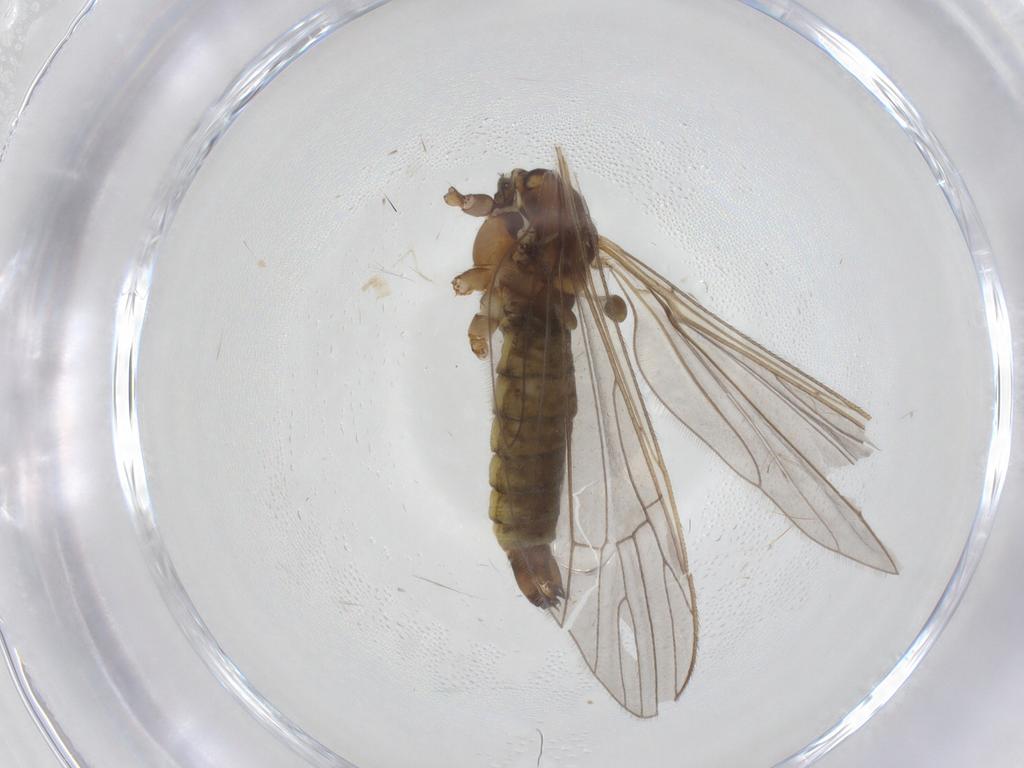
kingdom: Animalia
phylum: Arthropoda
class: Insecta
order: Diptera
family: Limoniidae
